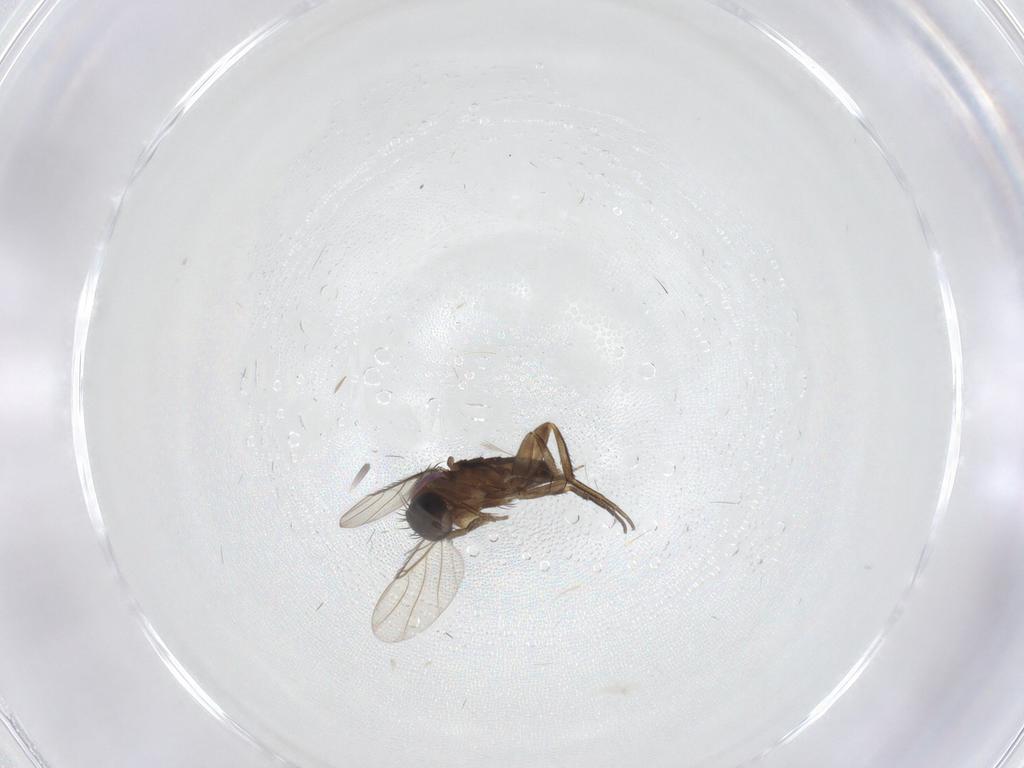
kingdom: Animalia
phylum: Arthropoda
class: Insecta
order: Diptera
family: Phoridae
